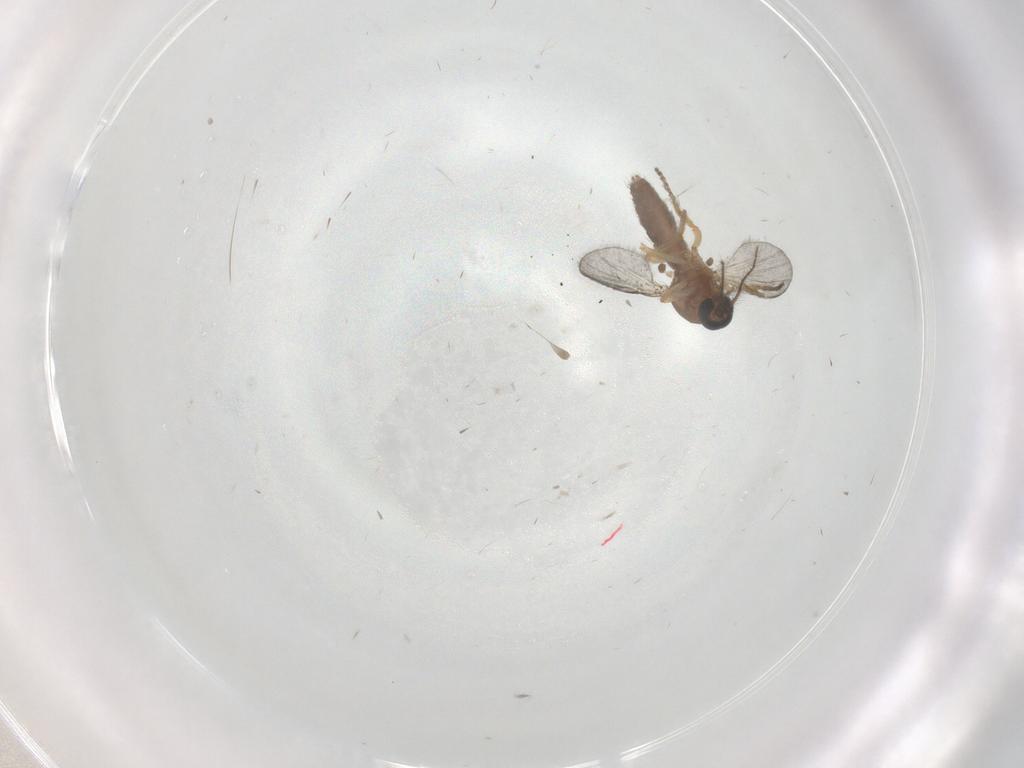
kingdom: Animalia
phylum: Arthropoda
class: Insecta
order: Diptera
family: Ceratopogonidae
